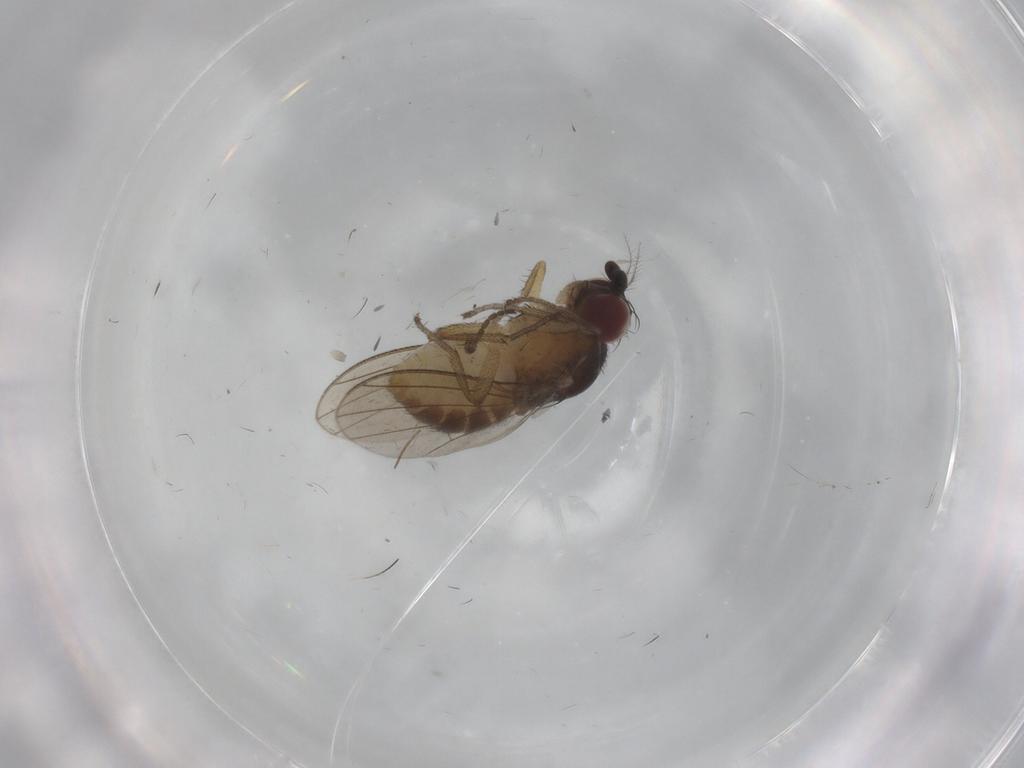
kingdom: Animalia
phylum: Arthropoda
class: Insecta
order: Diptera
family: Cecidomyiidae
